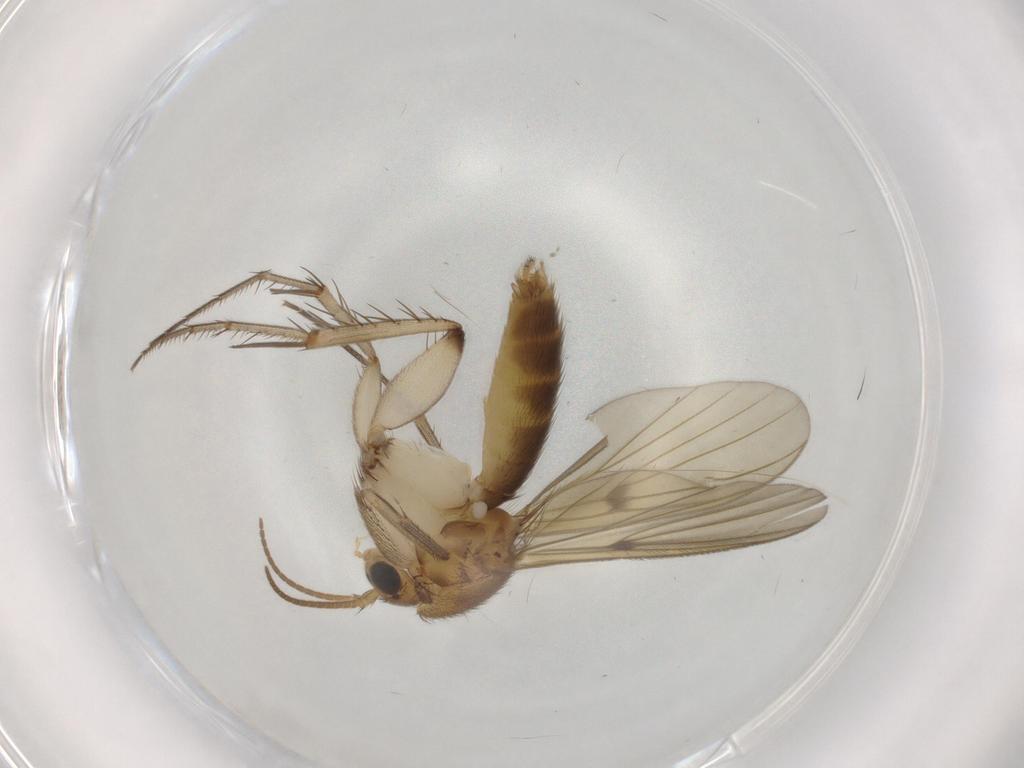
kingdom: Animalia
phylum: Arthropoda
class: Insecta
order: Diptera
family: Mycetophilidae
